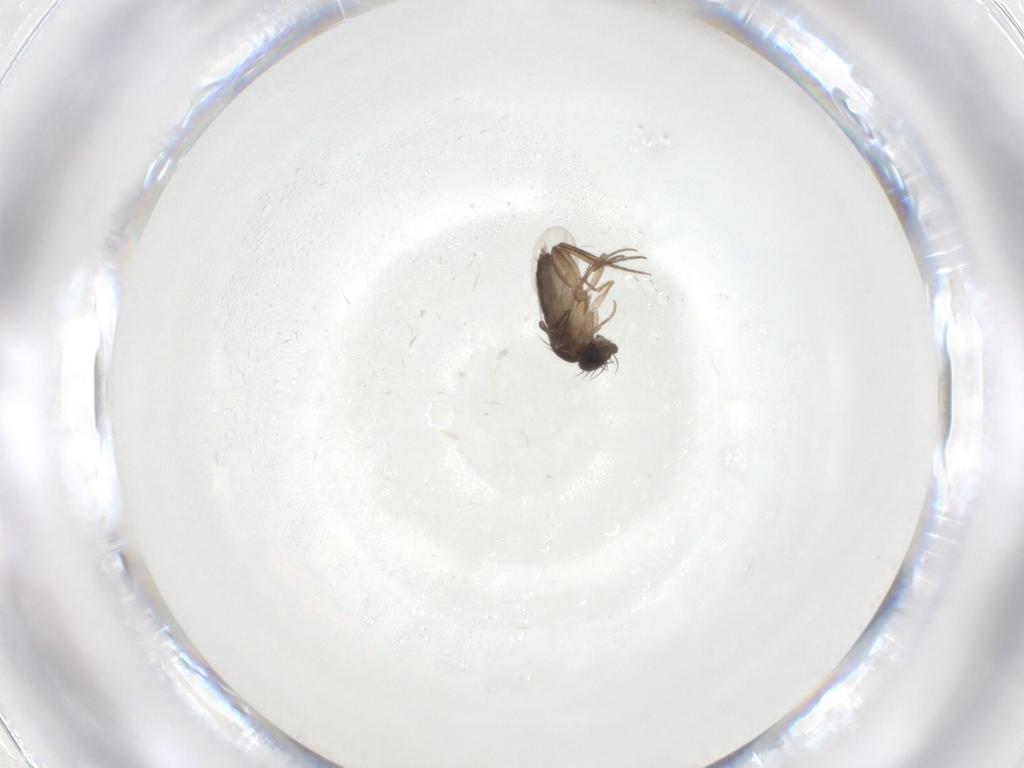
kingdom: Animalia
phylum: Arthropoda
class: Insecta
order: Diptera
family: Phoridae
